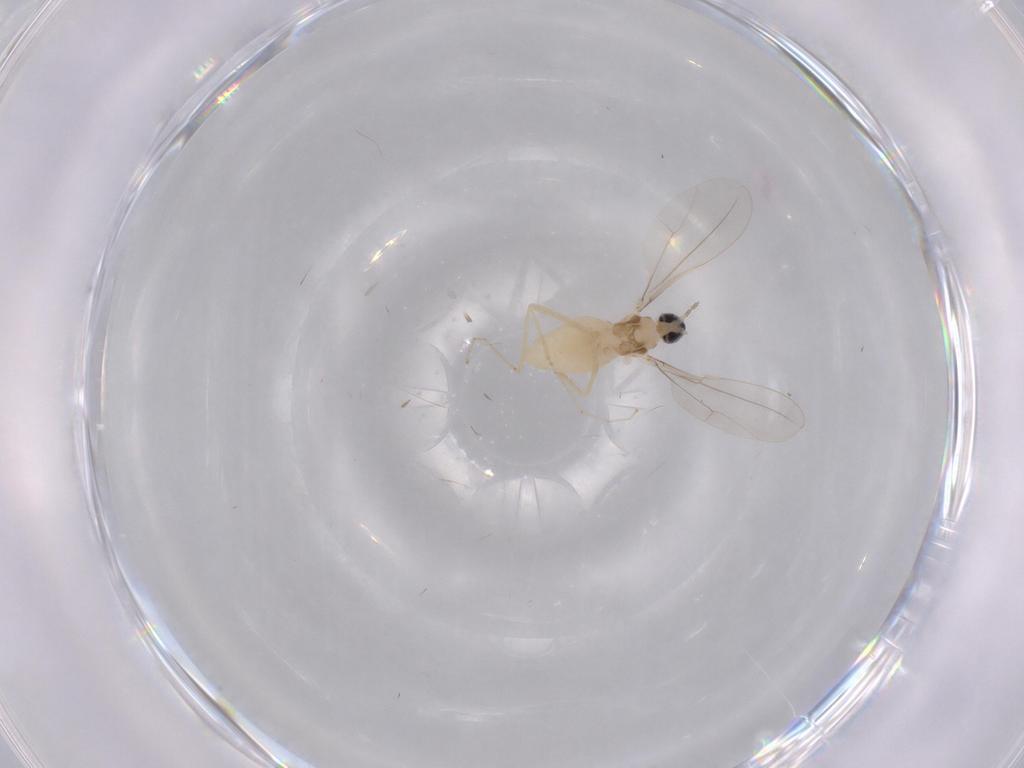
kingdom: Animalia
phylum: Arthropoda
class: Insecta
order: Diptera
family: Cecidomyiidae
